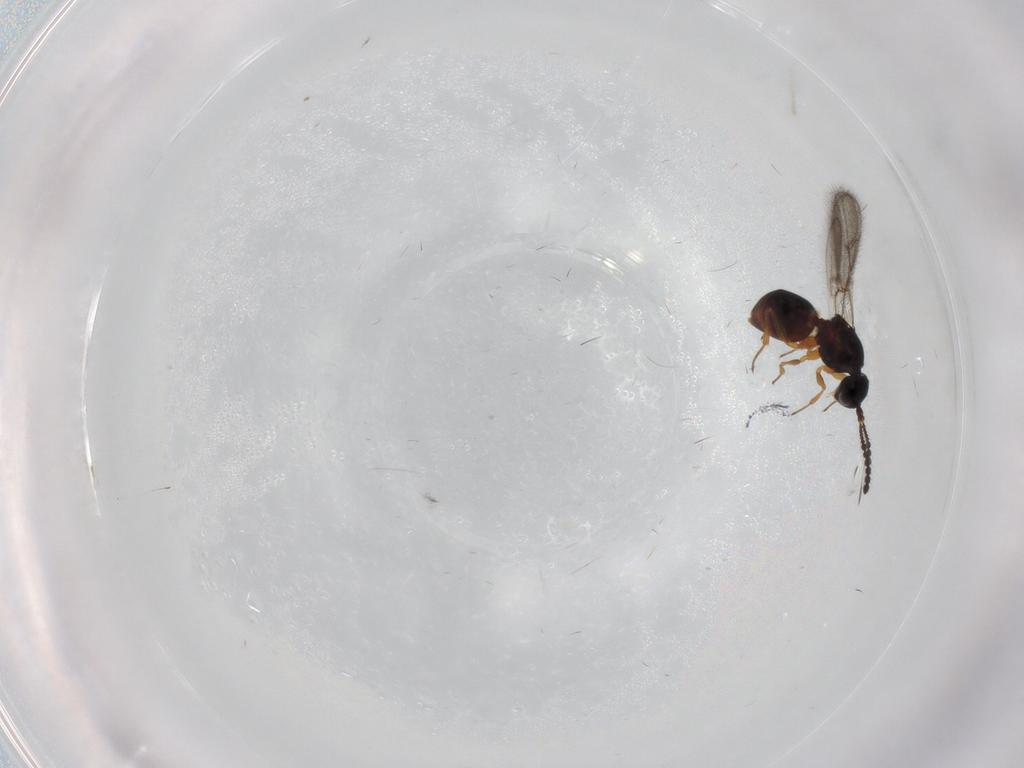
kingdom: Animalia
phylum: Arthropoda
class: Insecta
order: Hymenoptera
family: Figitidae
